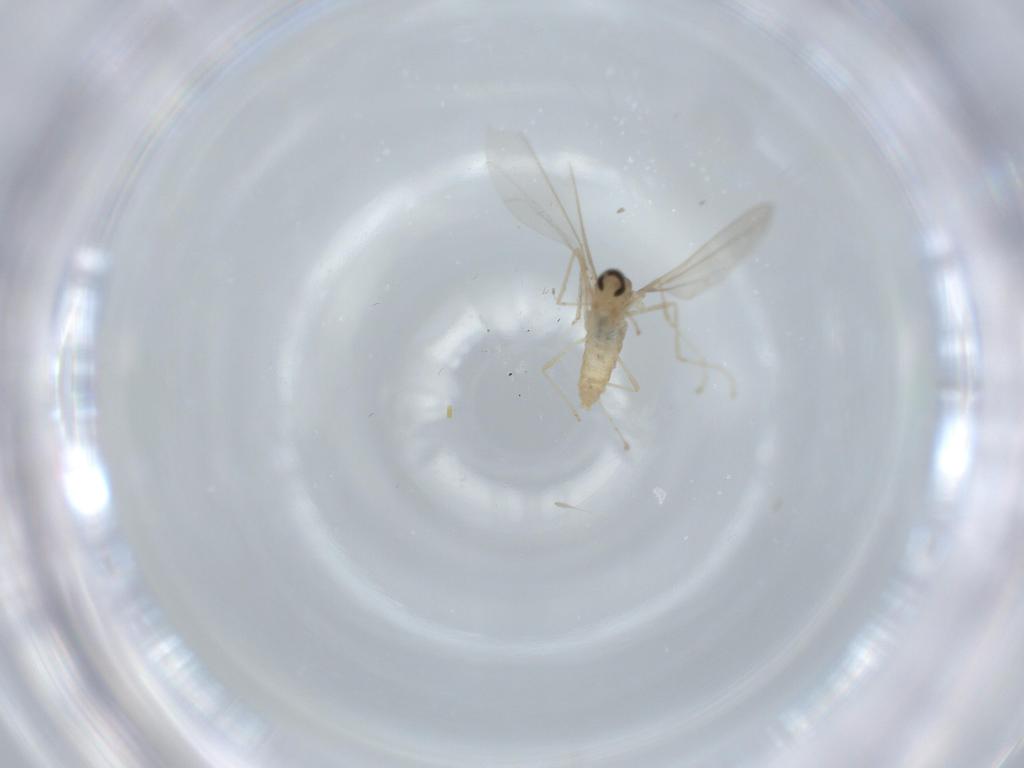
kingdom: Animalia
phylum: Arthropoda
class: Insecta
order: Diptera
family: Cecidomyiidae
